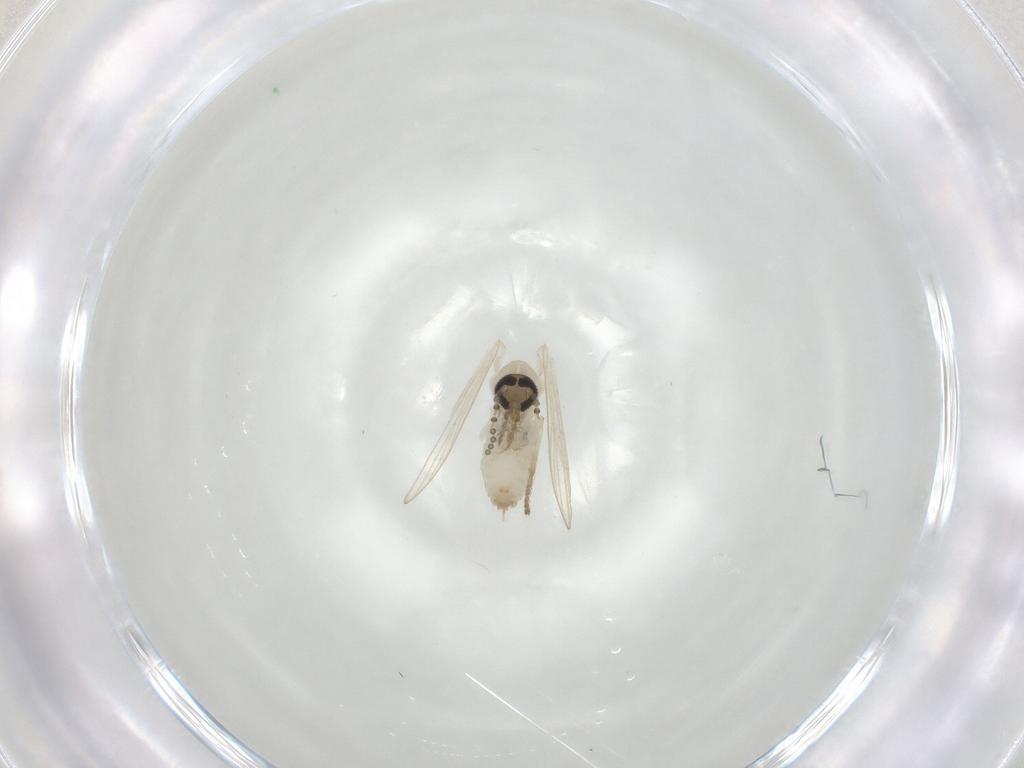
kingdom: Animalia
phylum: Arthropoda
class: Insecta
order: Diptera
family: Psychodidae
